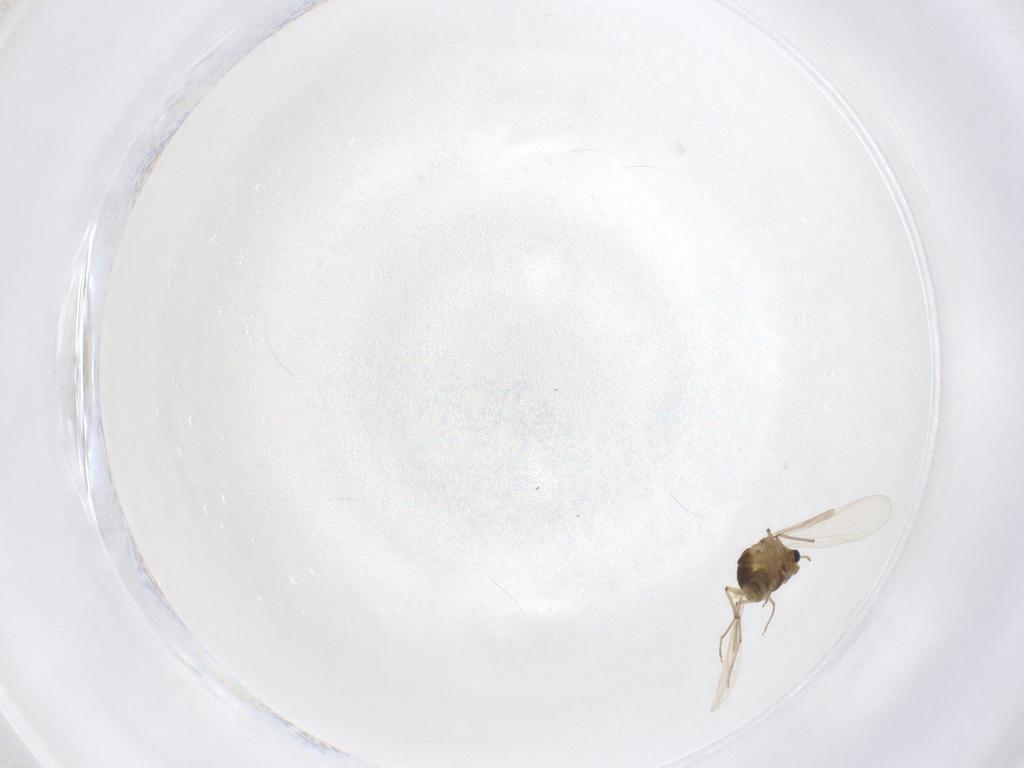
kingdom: Animalia
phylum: Arthropoda
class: Insecta
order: Diptera
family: Chironomidae
